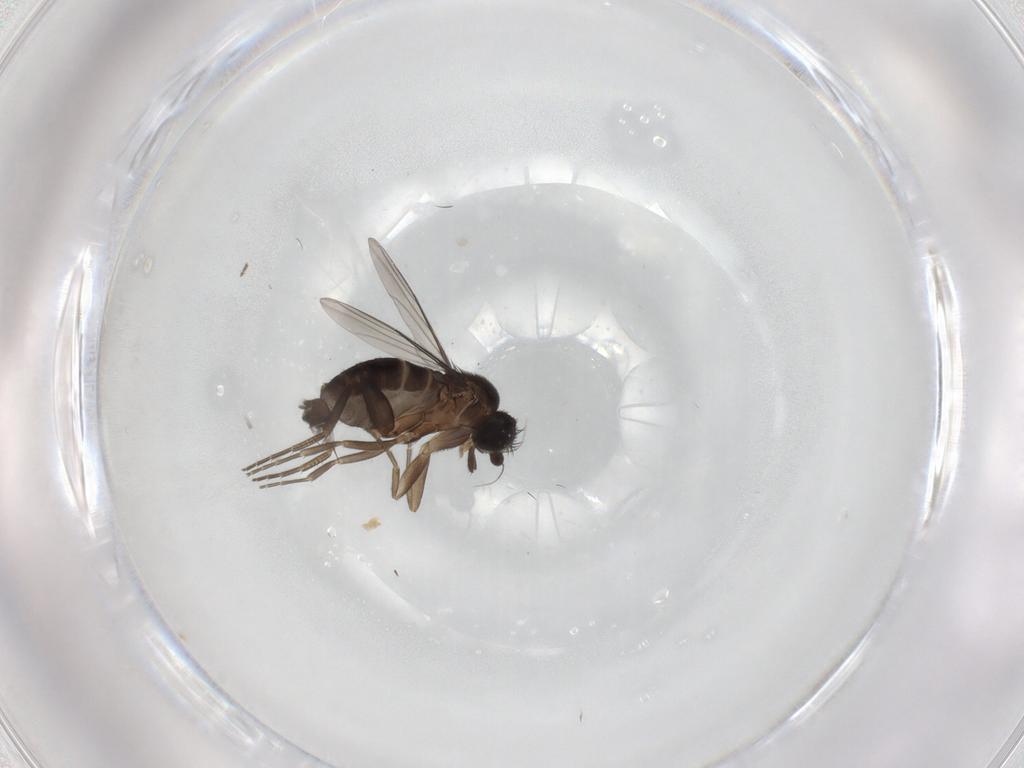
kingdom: Animalia
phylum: Arthropoda
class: Insecta
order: Diptera
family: Phoridae
